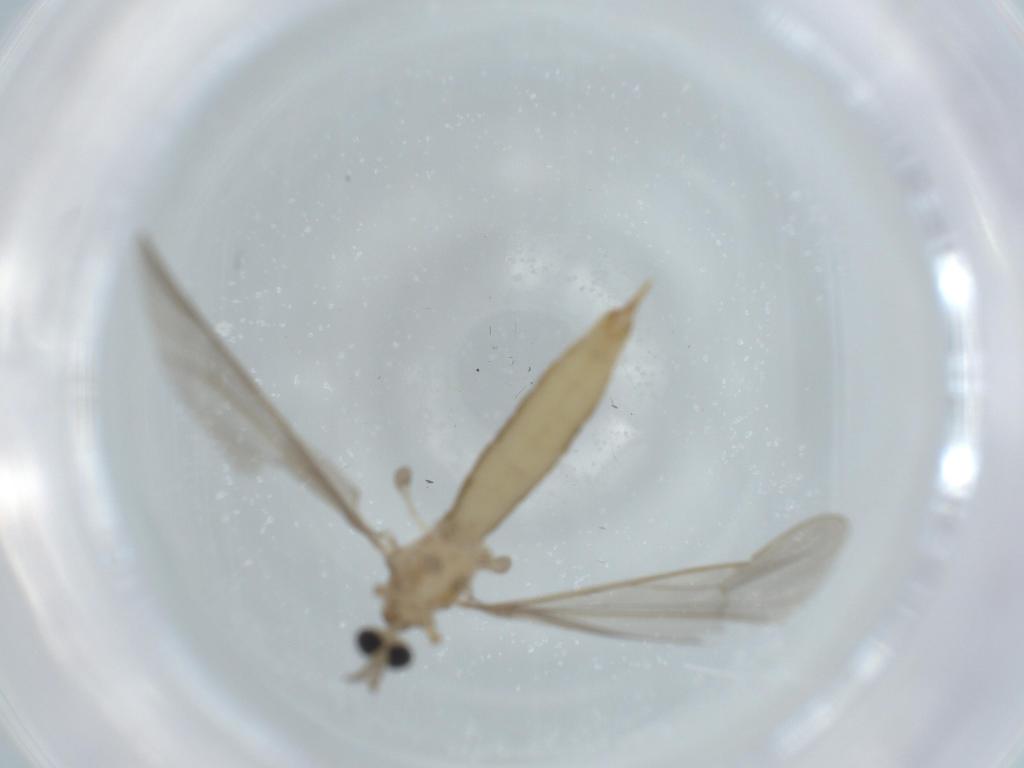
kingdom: Animalia
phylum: Arthropoda
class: Insecta
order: Diptera
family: Limoniidae
